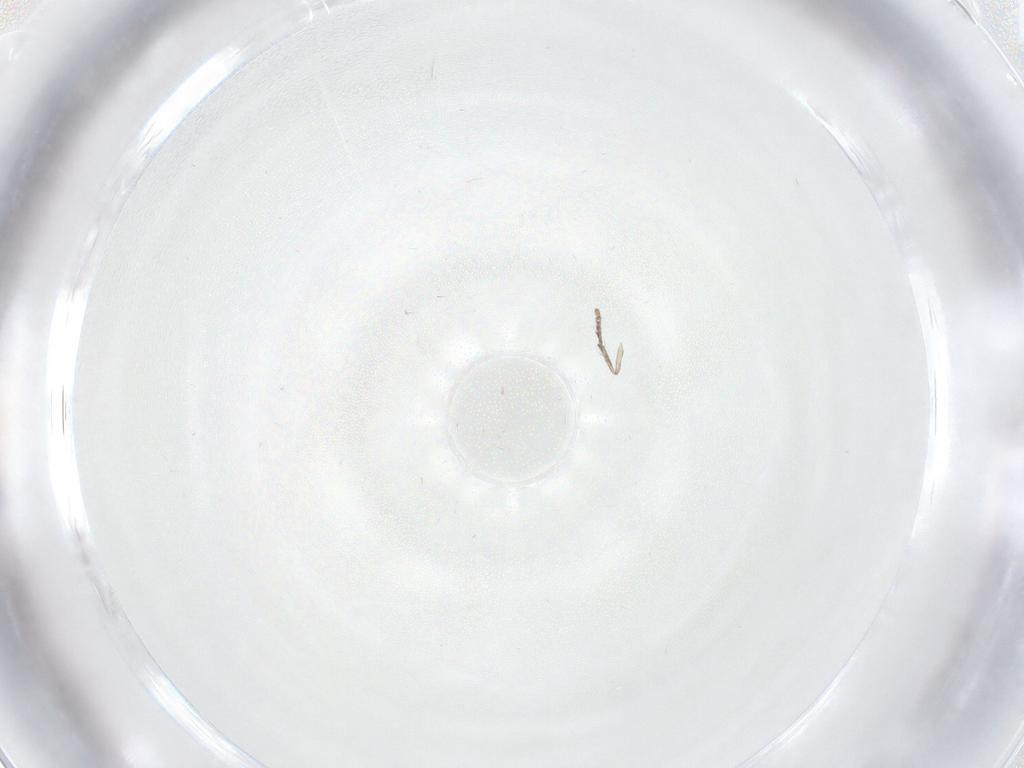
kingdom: Animalia
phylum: Arthropoda
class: Insecta
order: Diptera
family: Psychodidae
